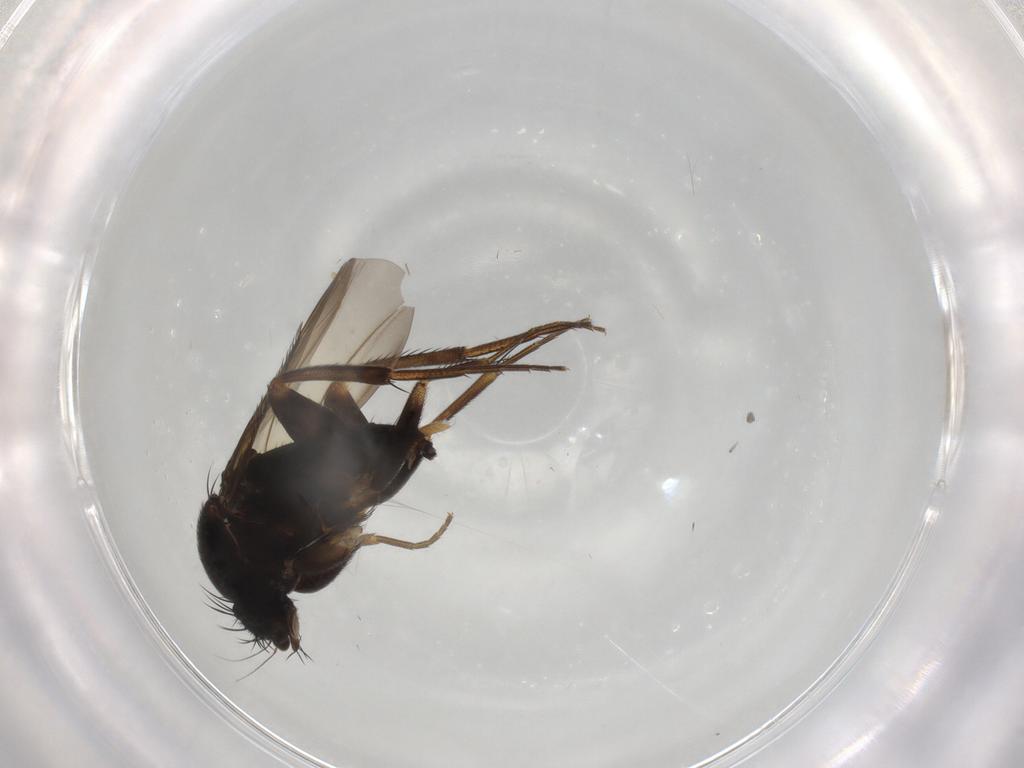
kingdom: Animalia
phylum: Arthropoda
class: Insecta
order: Diptera
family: Phoridae
